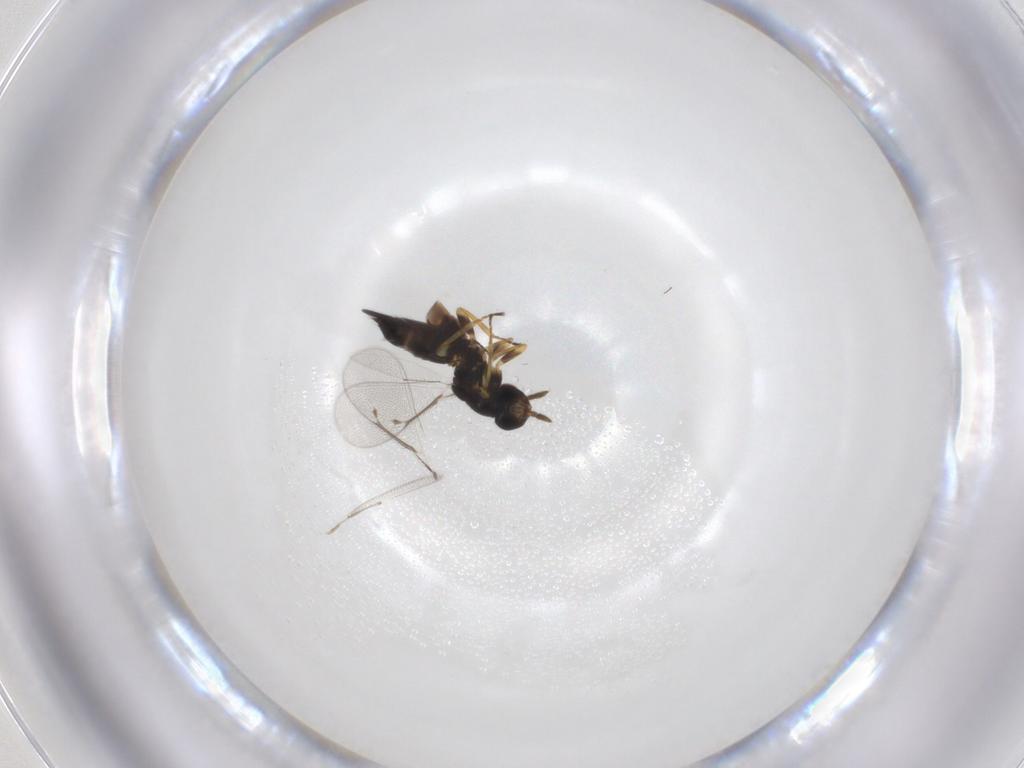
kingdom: Animalia
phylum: Arthropoda
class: Insecta
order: Hymenoptera
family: Eulophidae
